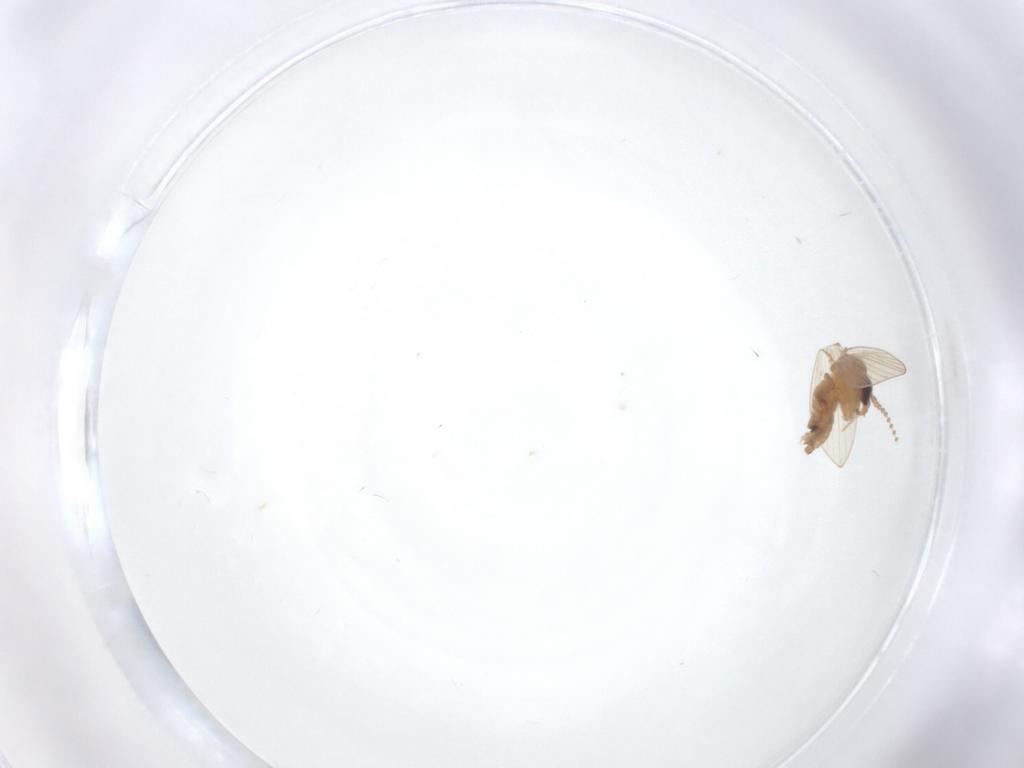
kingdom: Animalia
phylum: Arthropoda
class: Insecta
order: Diptera
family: Psychodidae
